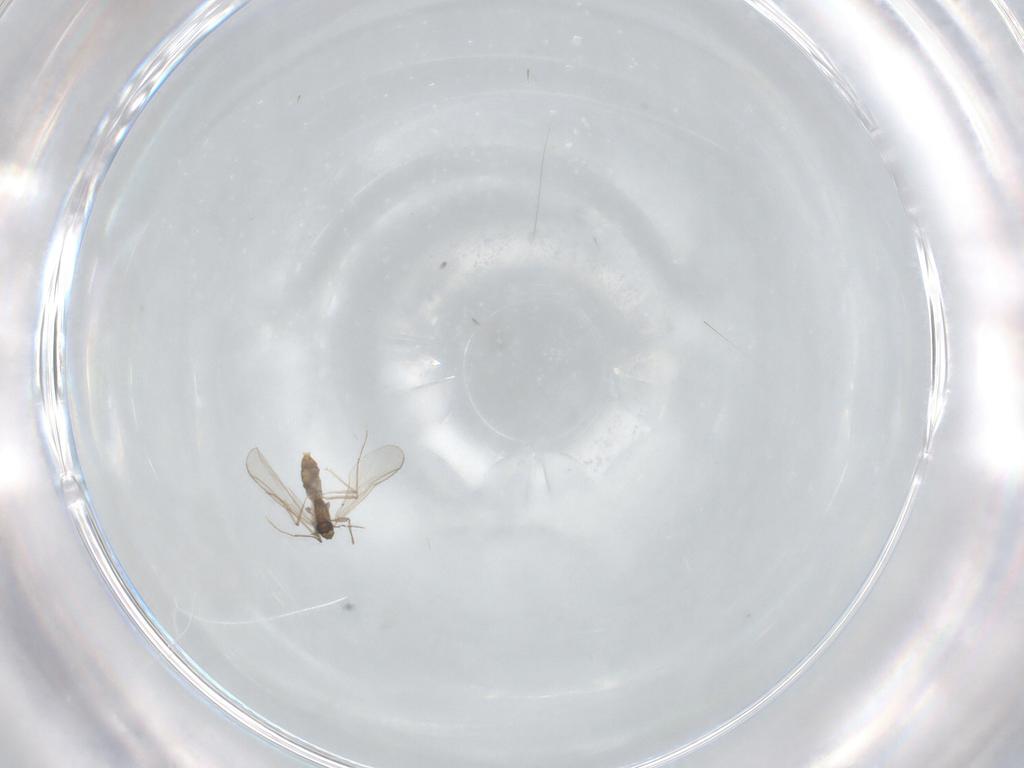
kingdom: Animalia
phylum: Arthropoda
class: Insecta
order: Diptera
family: Chironomidae
